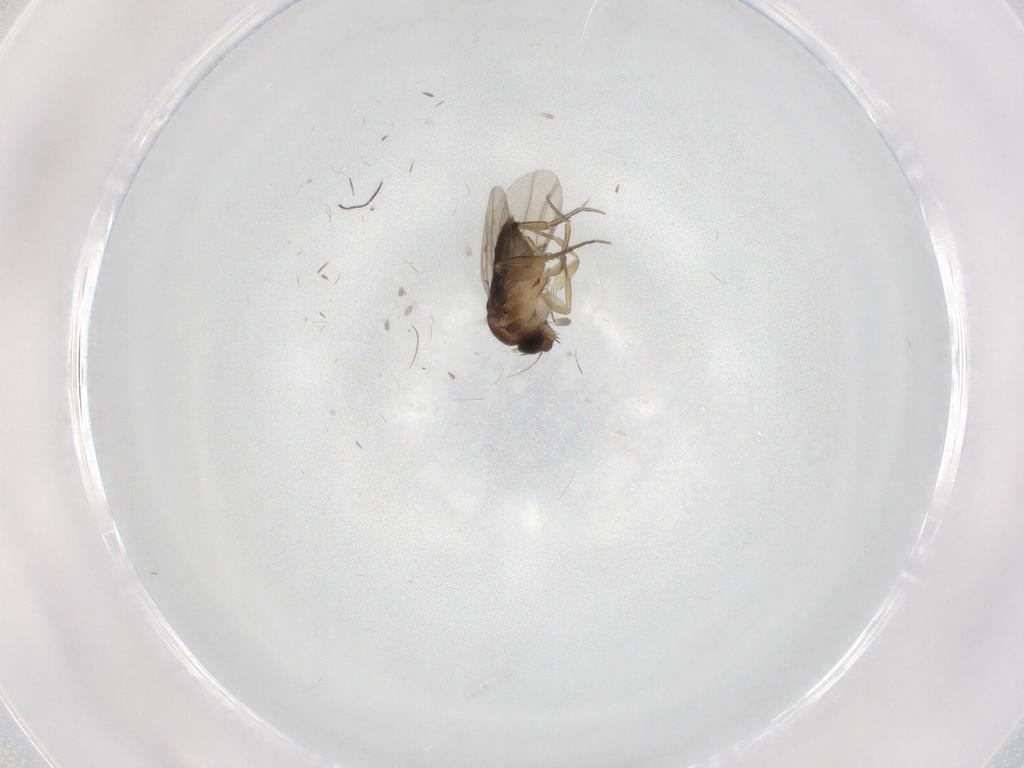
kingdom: Animalia
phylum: Arthropoda
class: Insecta
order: Diptera
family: Phoridae
